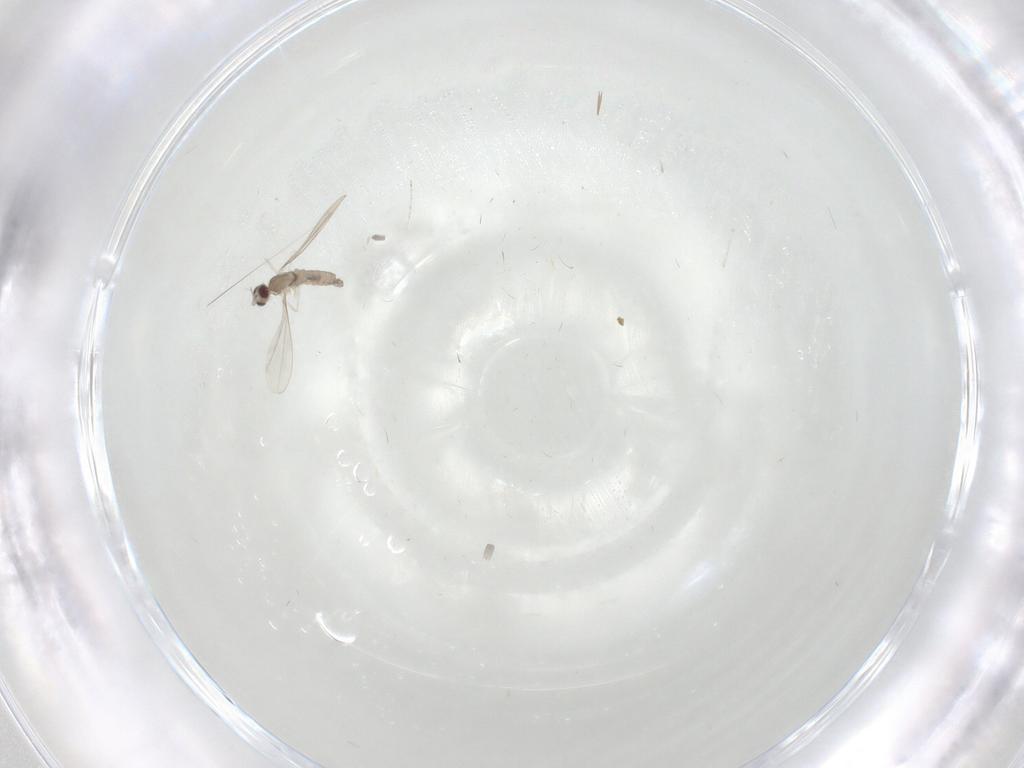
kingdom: Animalia
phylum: Arthropoda
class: Insecta
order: Diptera
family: Cecidomyiidae
